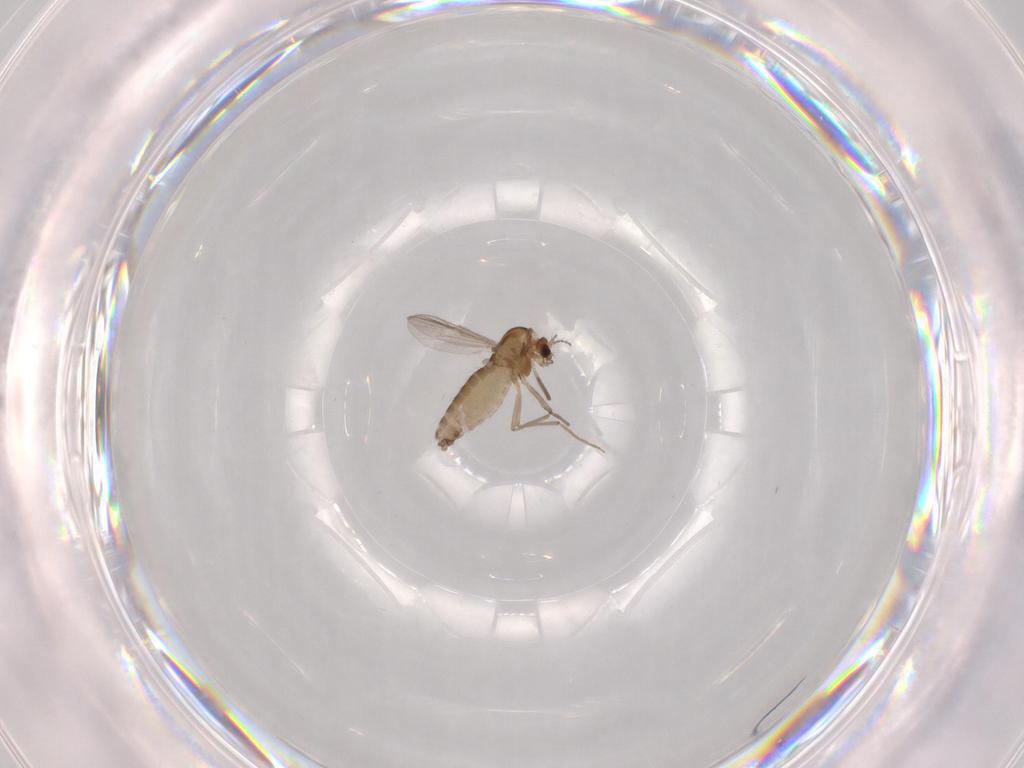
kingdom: Animalia
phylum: Arthropoda
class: Insecta
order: Diptera
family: Chironomidae
